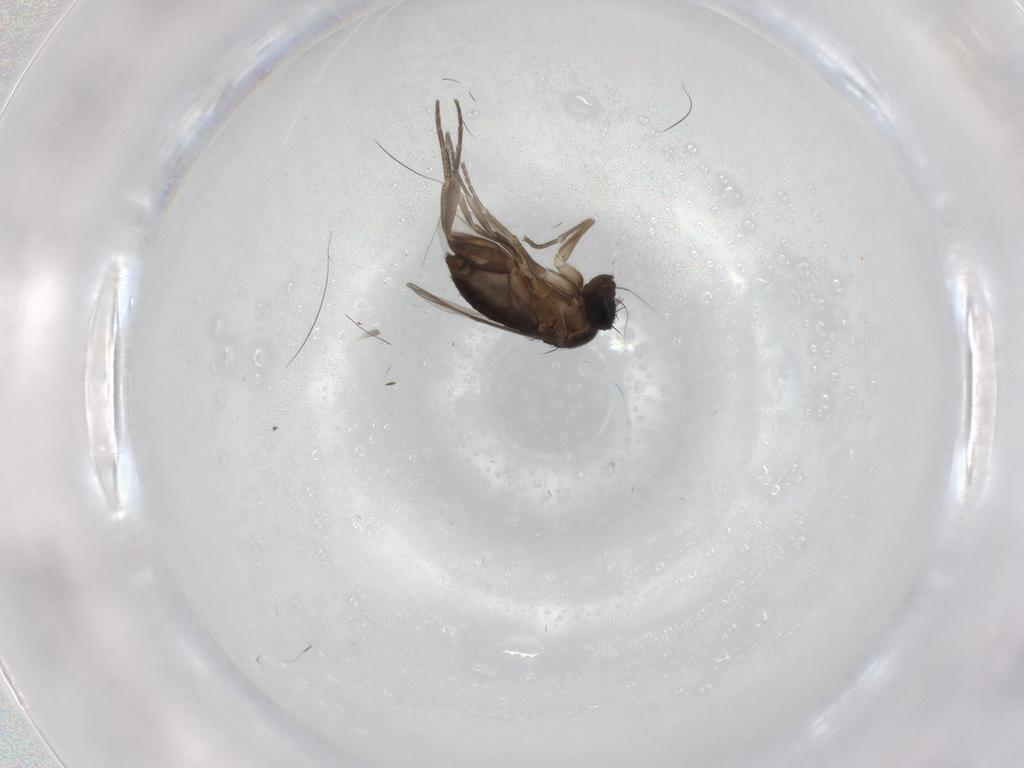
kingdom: Animalia
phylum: Arthropoda
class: Insecta
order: Diptera
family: Phoridae
